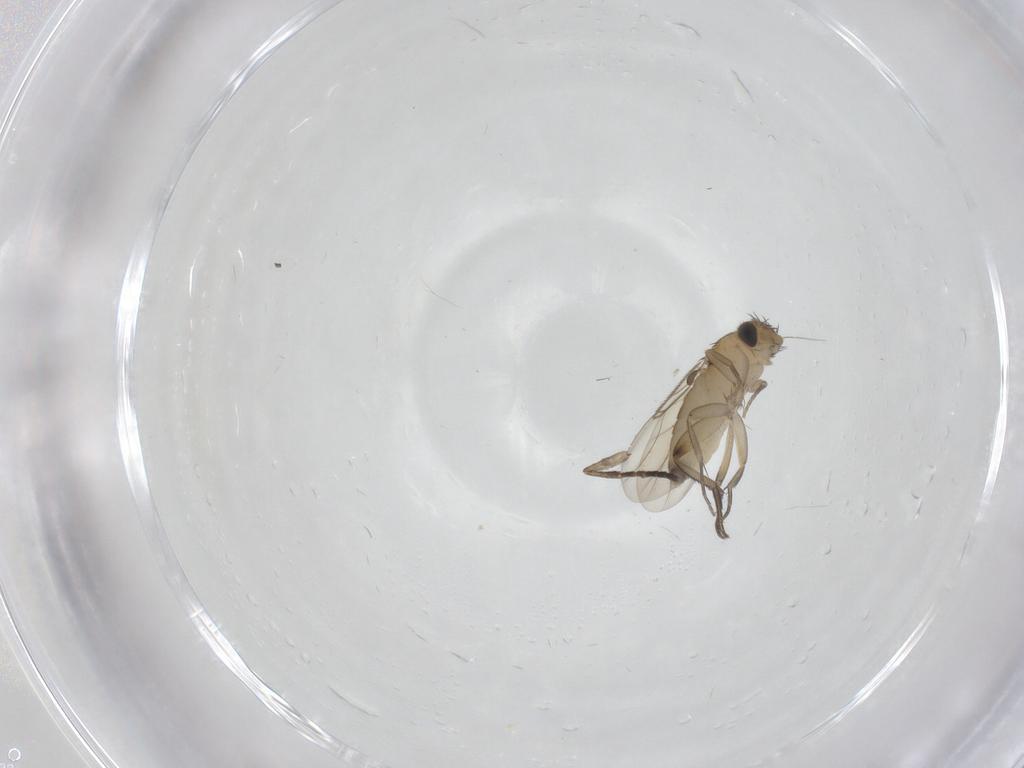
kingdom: Animalia
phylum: Arthropoda
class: Insecta
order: Diptera
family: Phoridae
